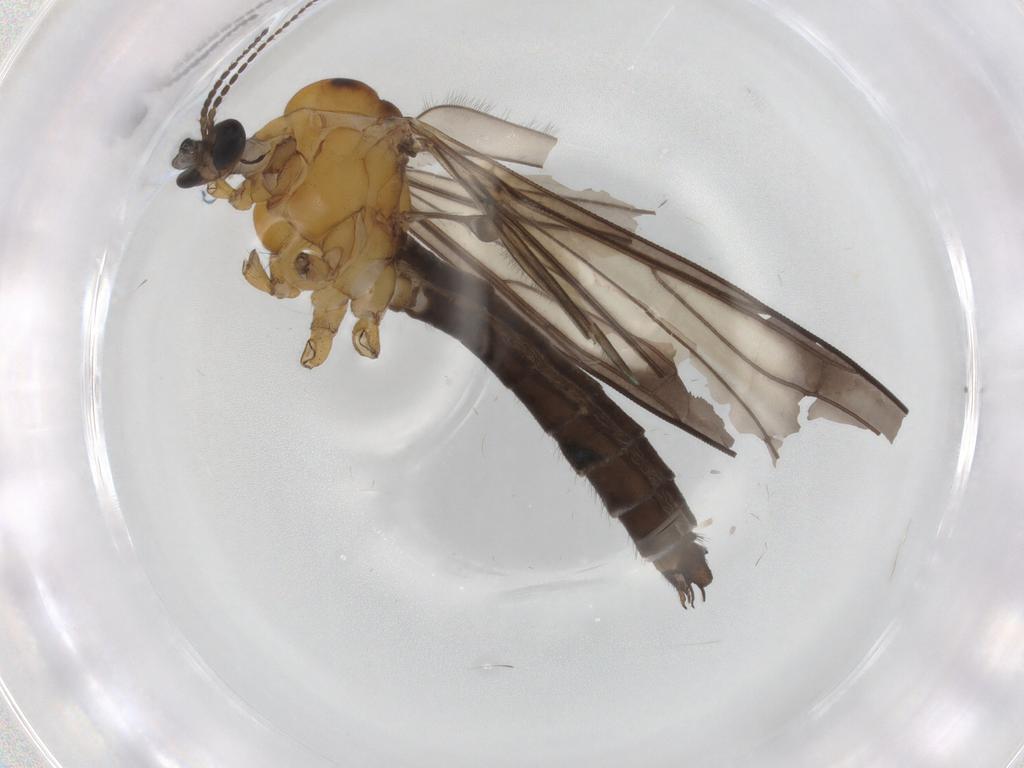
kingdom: Animalia
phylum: Arthropoda
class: Insecta
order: Diptera
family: Limoniidae
